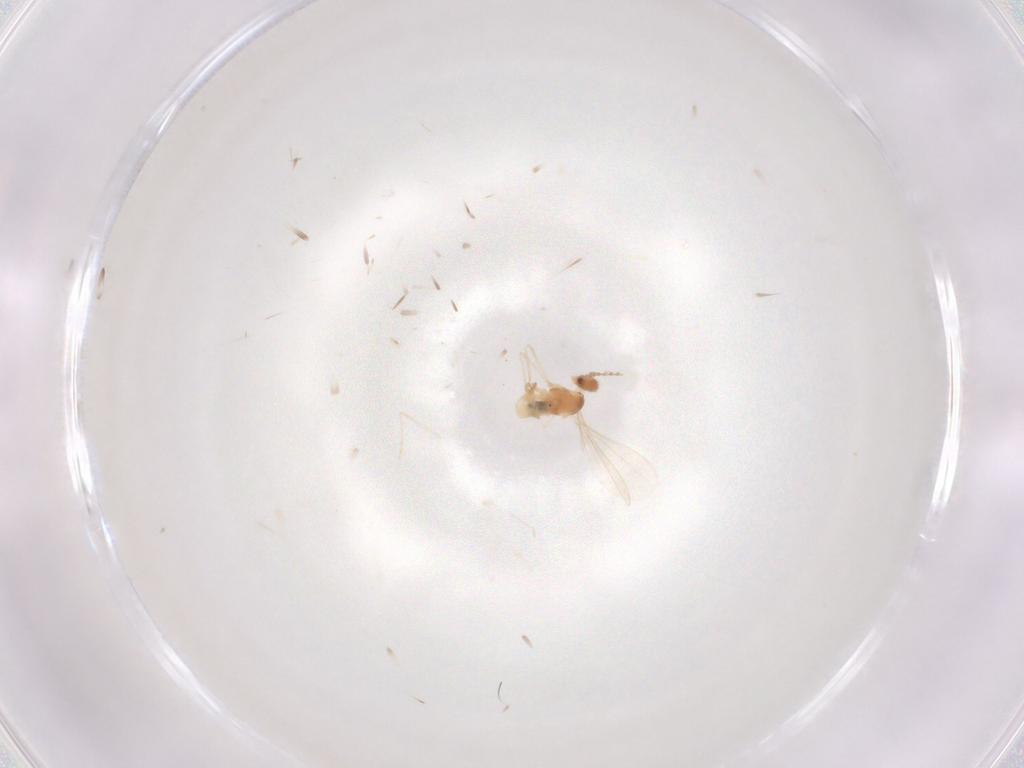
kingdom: Animalia
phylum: Arthropoda
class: Insecta
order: Diptera
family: Cecidomyiidae
